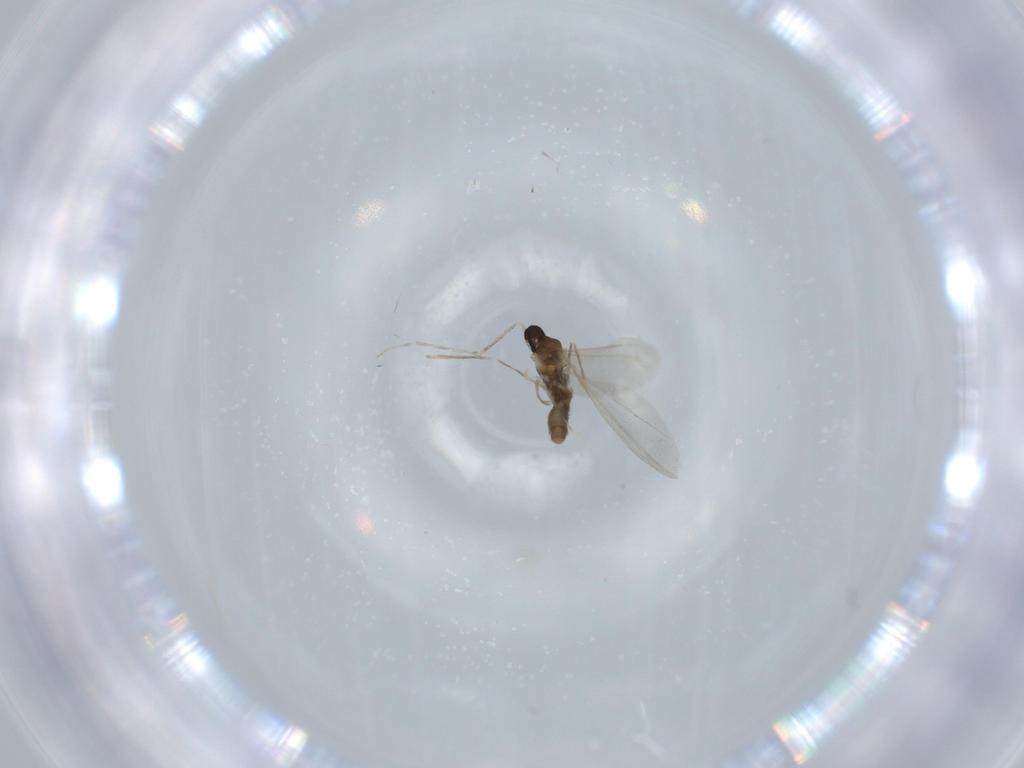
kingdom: Animalia
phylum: Arthropoda
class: Insecta
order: Diptera
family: Cecidomyiidae
